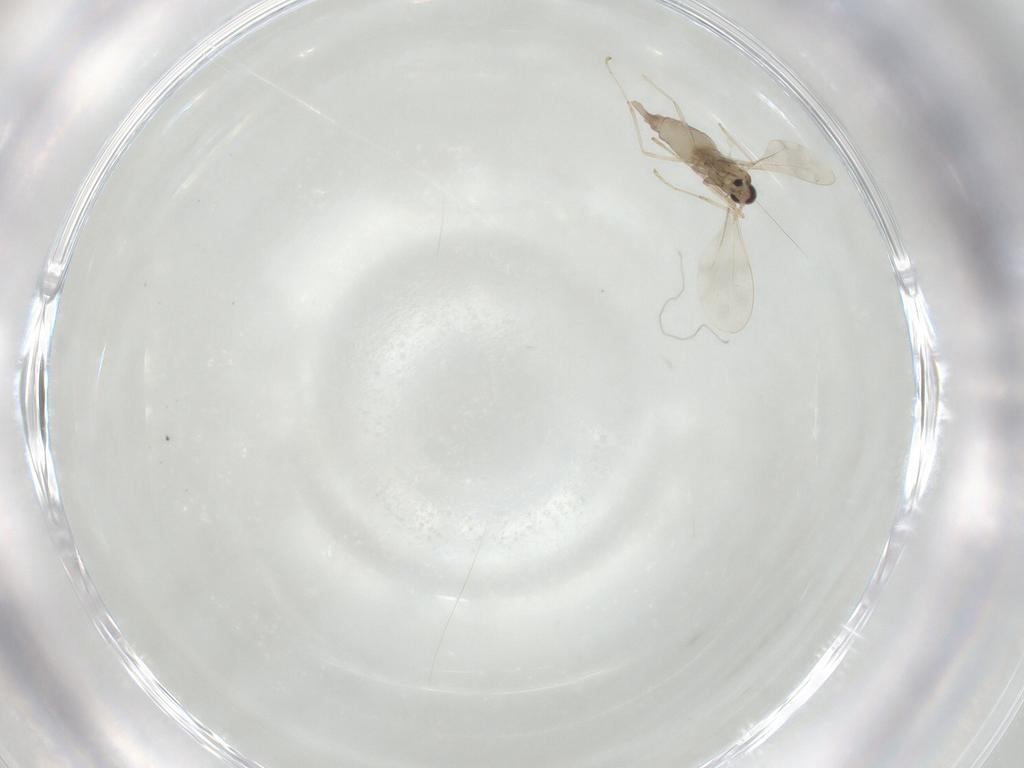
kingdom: Animalia
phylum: Arthropoda
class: Insecta
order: Diptera
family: Cecidomyiidae
